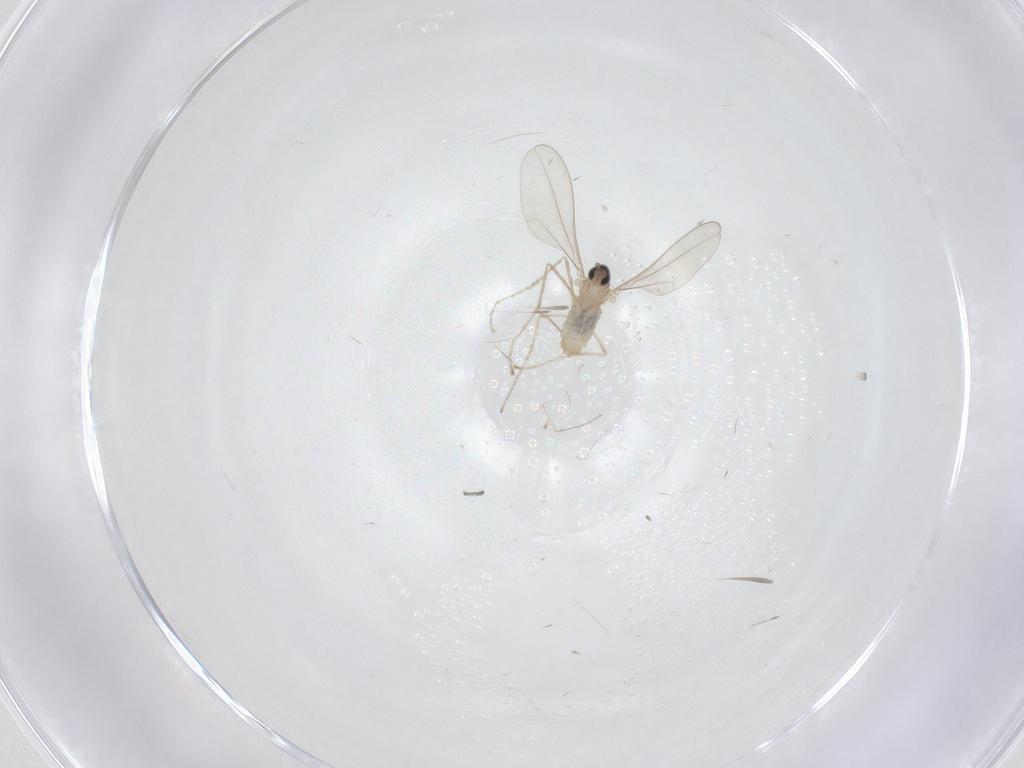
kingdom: Animalia
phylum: Arthropoda
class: Insecta
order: Diptera
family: Cecidomyiidae
